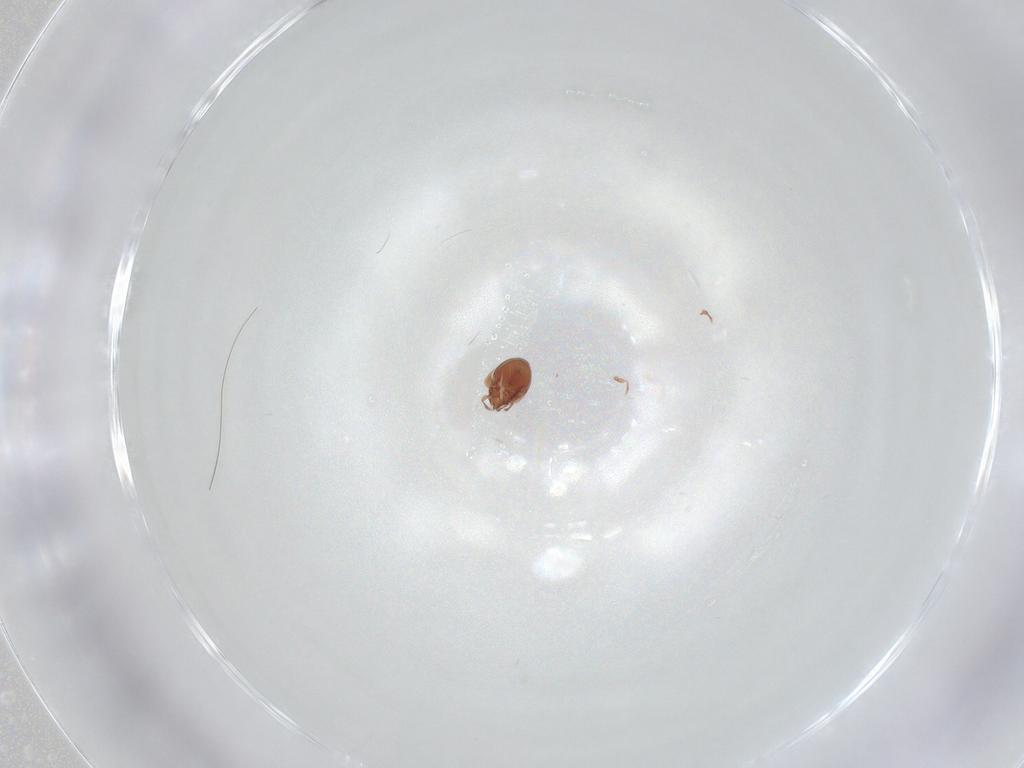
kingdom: Animalia
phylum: Arthropoda
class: Arachnida
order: Sarcoptiformes
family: Scheloribatidae
